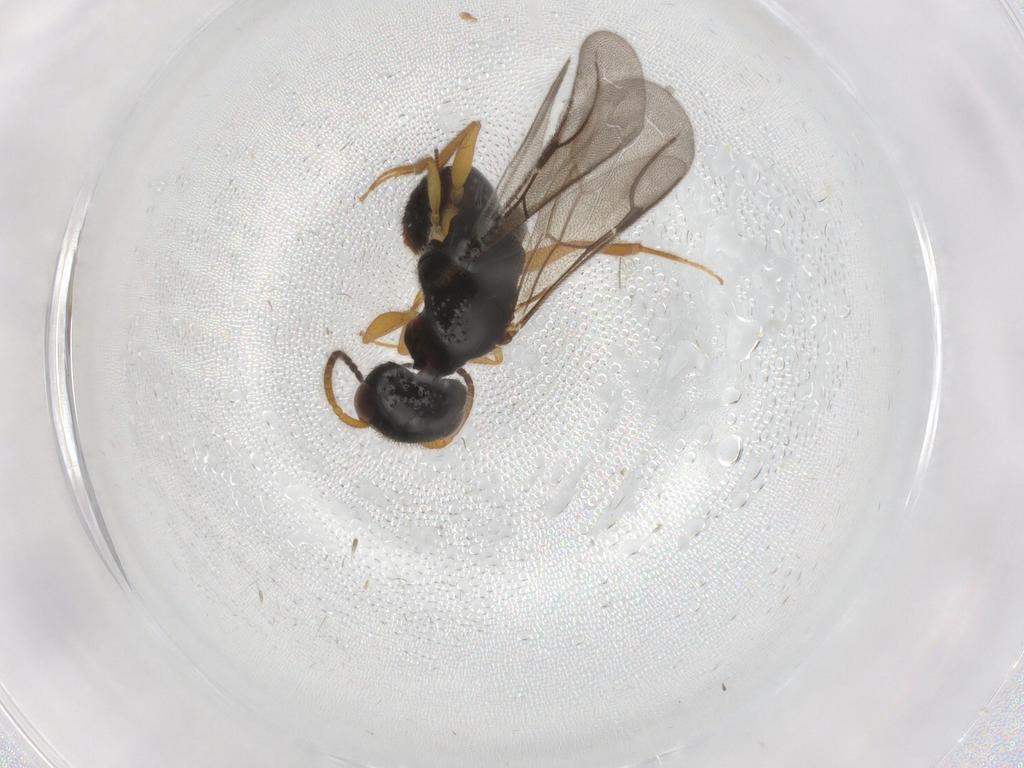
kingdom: Animalia
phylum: Arthropoda
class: Insecta
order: Hymenoptera
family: Bethylidae
